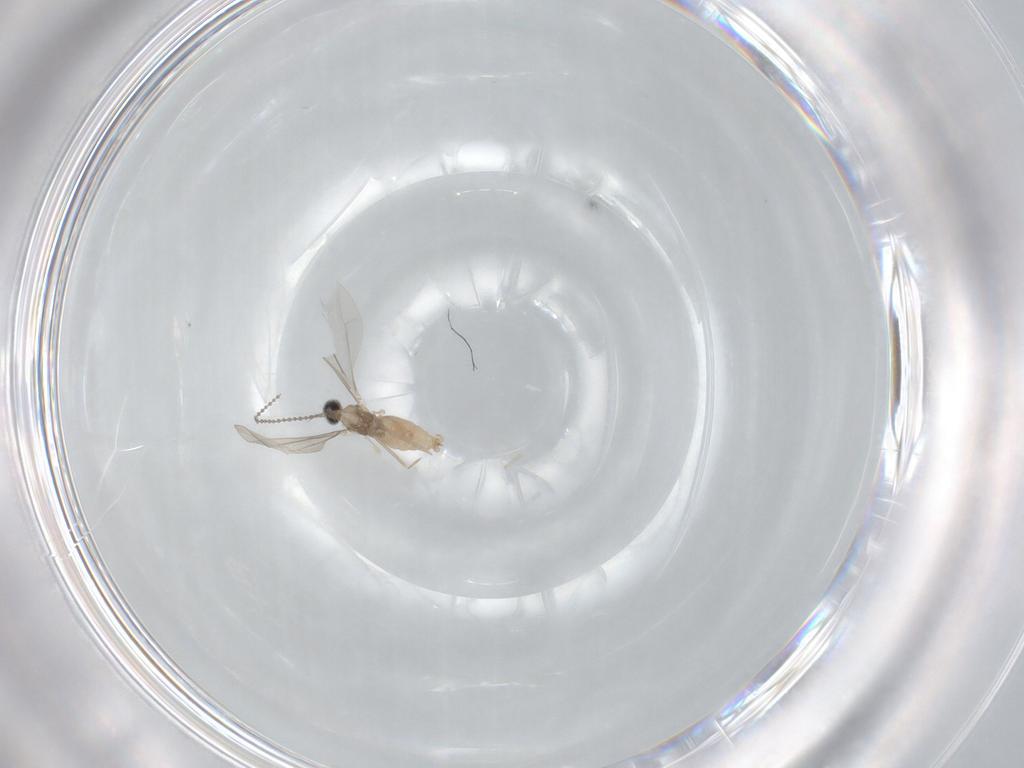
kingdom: Animalia
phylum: Arthropoda
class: Insecta
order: Diptera
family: Cecidomyiidae
